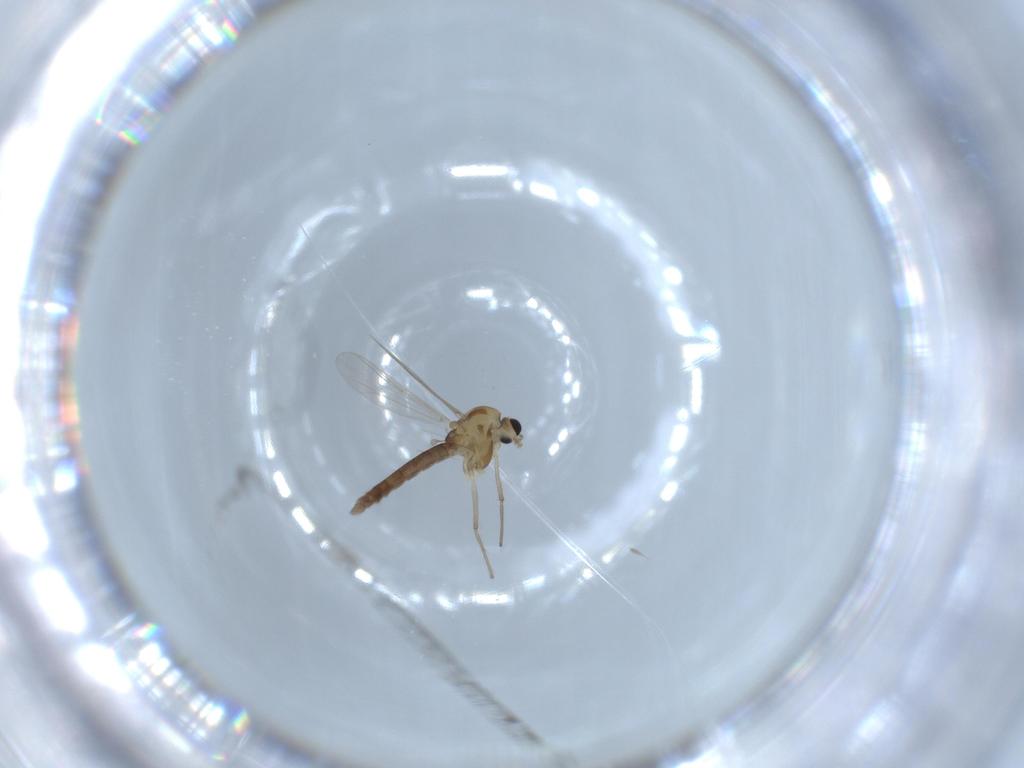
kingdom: Animalia
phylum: Arthropoda
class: Insecta
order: Diptera
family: Chironomidae
